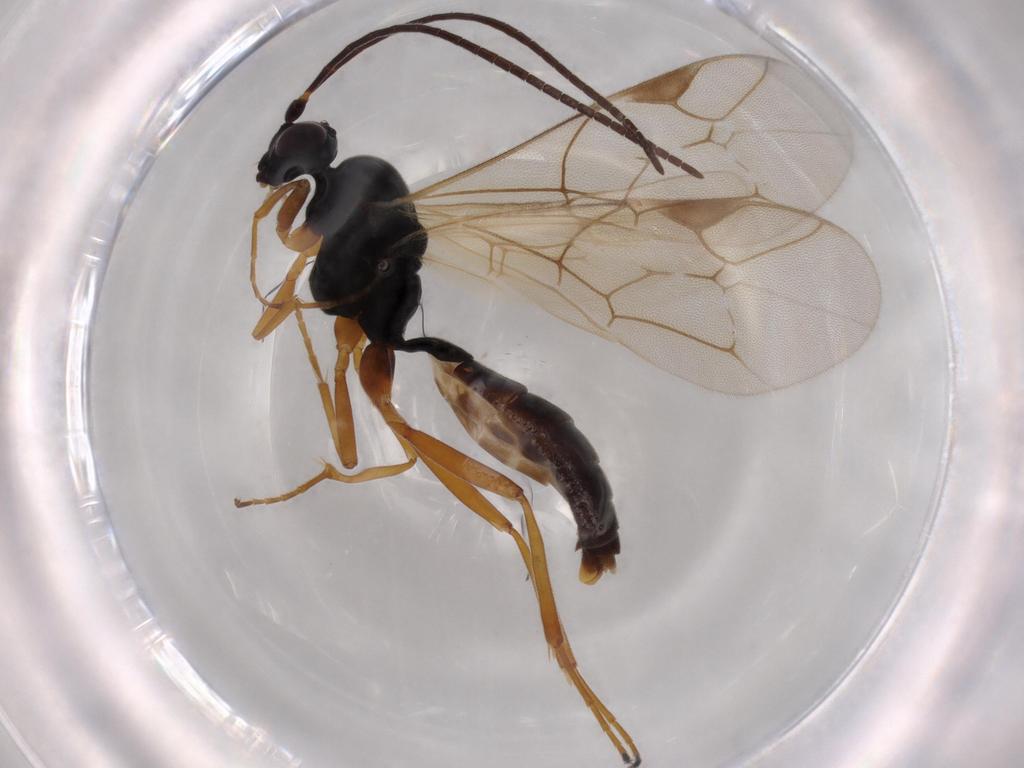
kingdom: Animalia
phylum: Arthropoda
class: Insecta
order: Hymenoptera
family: Ichneumonidae
